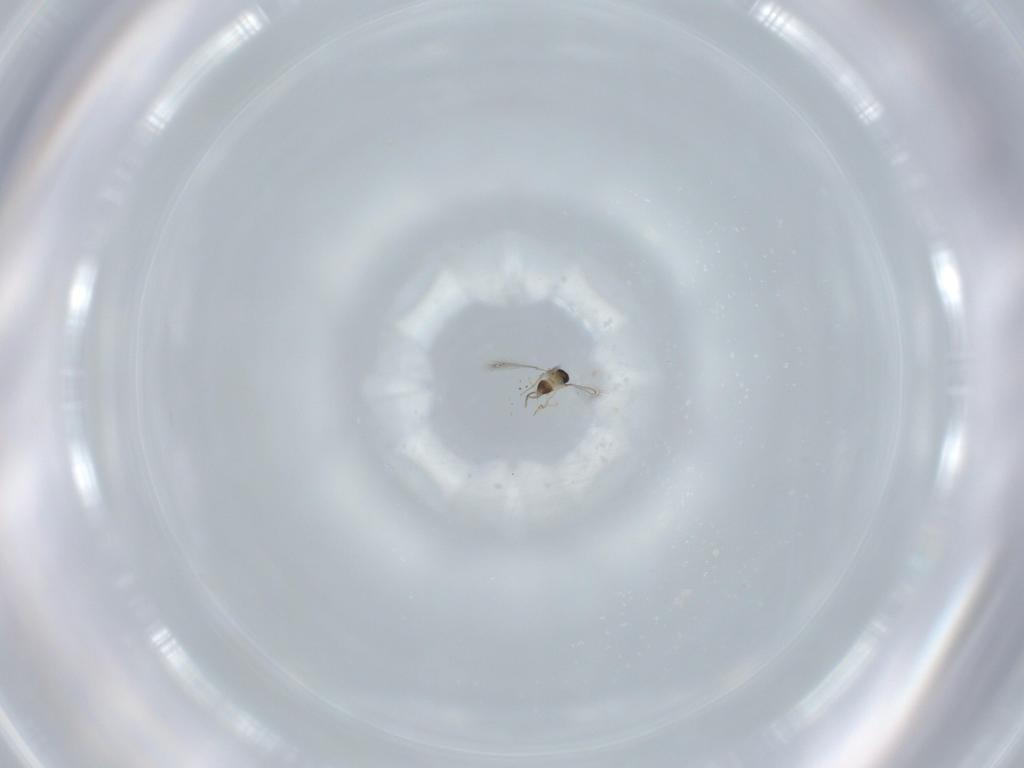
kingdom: Animalia
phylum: Arthropoda
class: Insecta
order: Hymenoptera
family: Mymaridae
